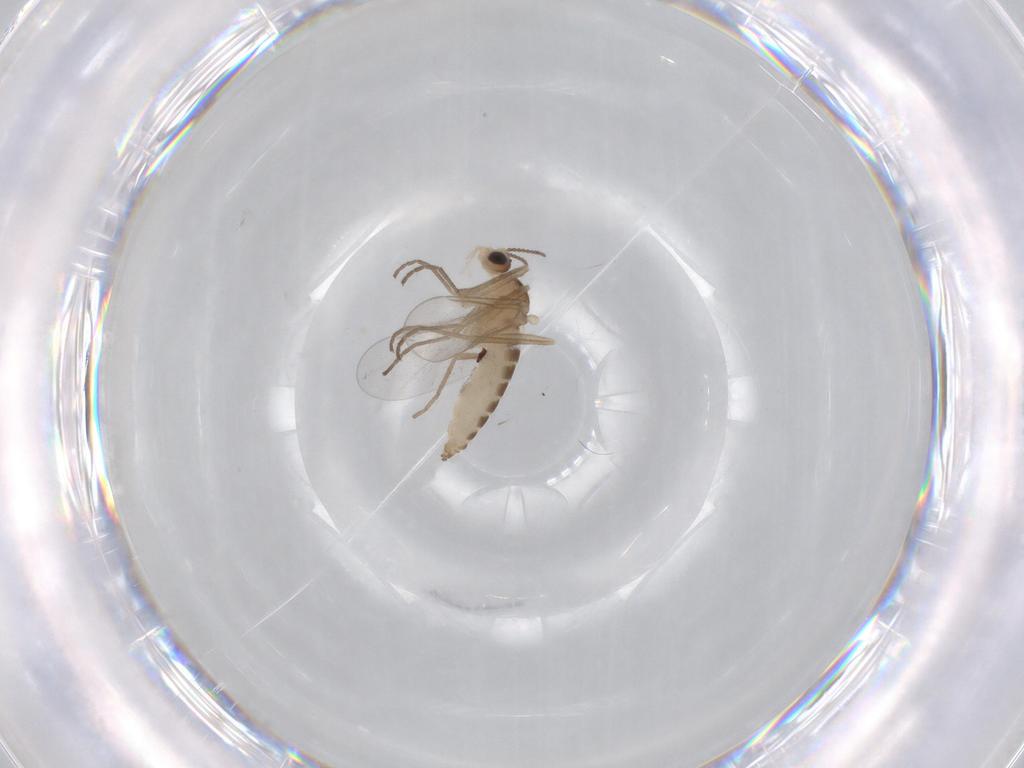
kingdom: Animalia
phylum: Arthropoda
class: Insecta
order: Diptera
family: Cecidomyiidae
